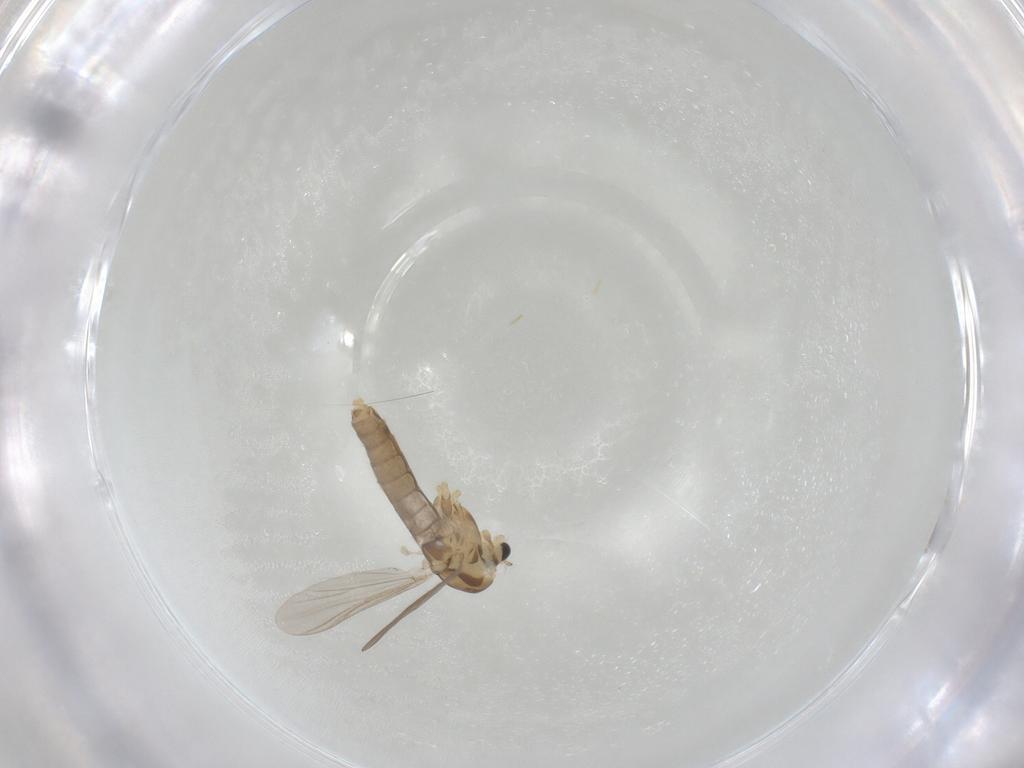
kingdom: Animalia
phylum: Arthropoda
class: Insecta
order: Diptera
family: Chironomidae
